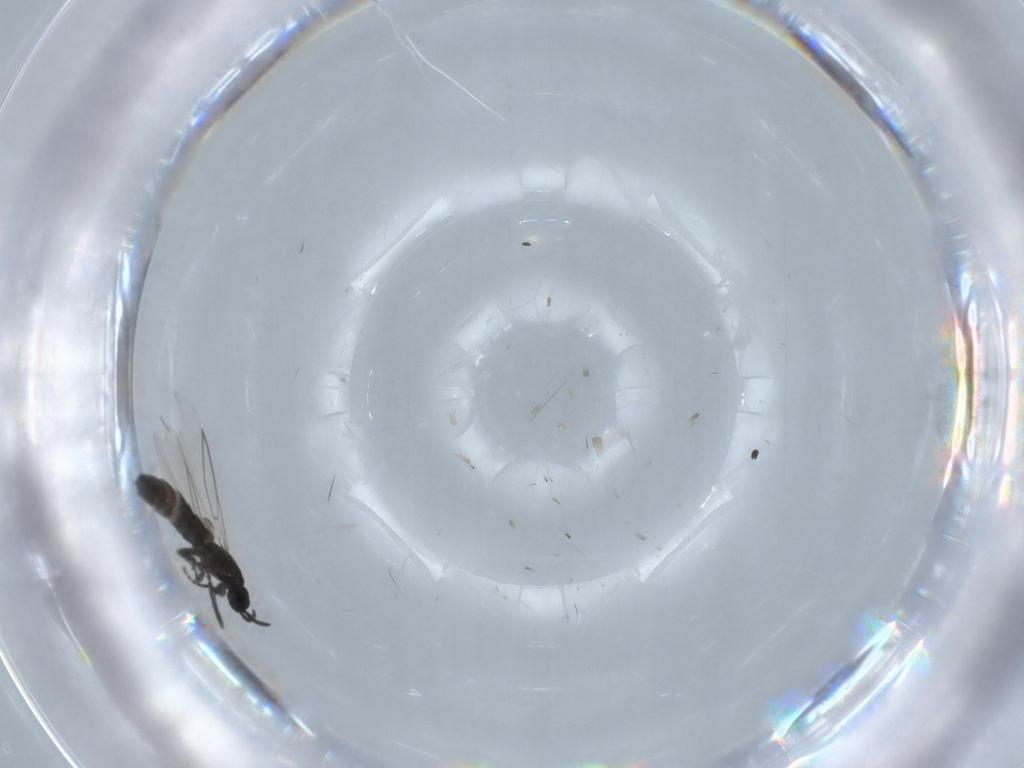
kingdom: Animalia
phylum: Arthropoda
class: Insecta
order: Diptera
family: Scatopsidae
